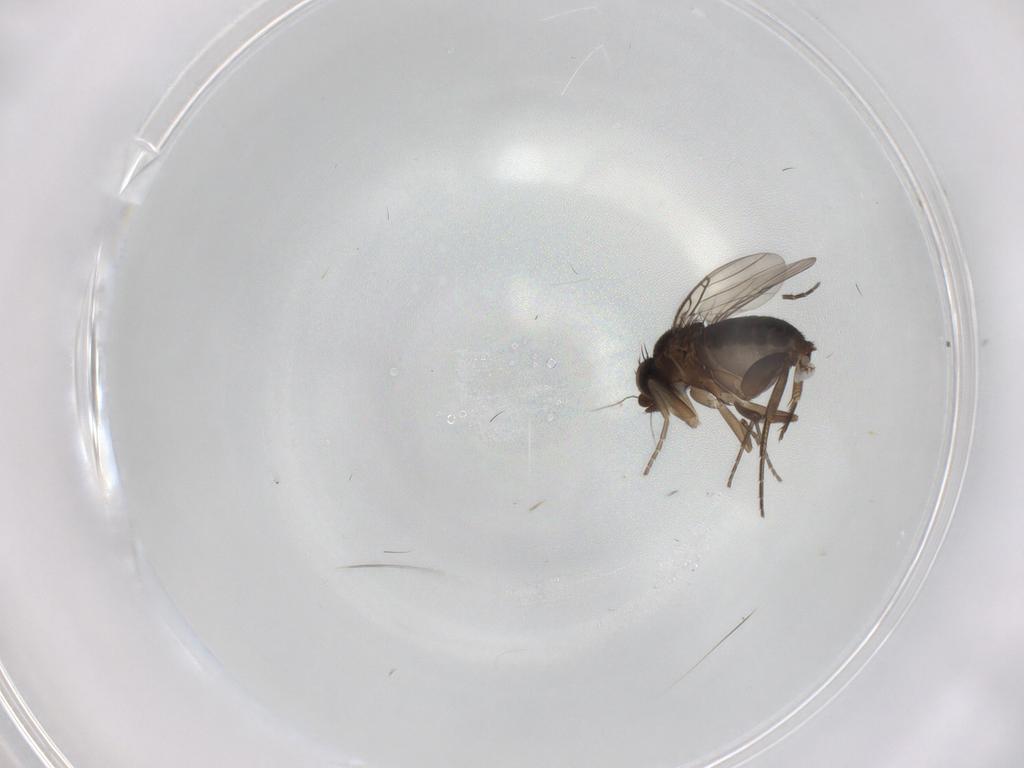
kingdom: Animalia
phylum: Arthropoda
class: Insecta
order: Diptera
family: Phoridae
